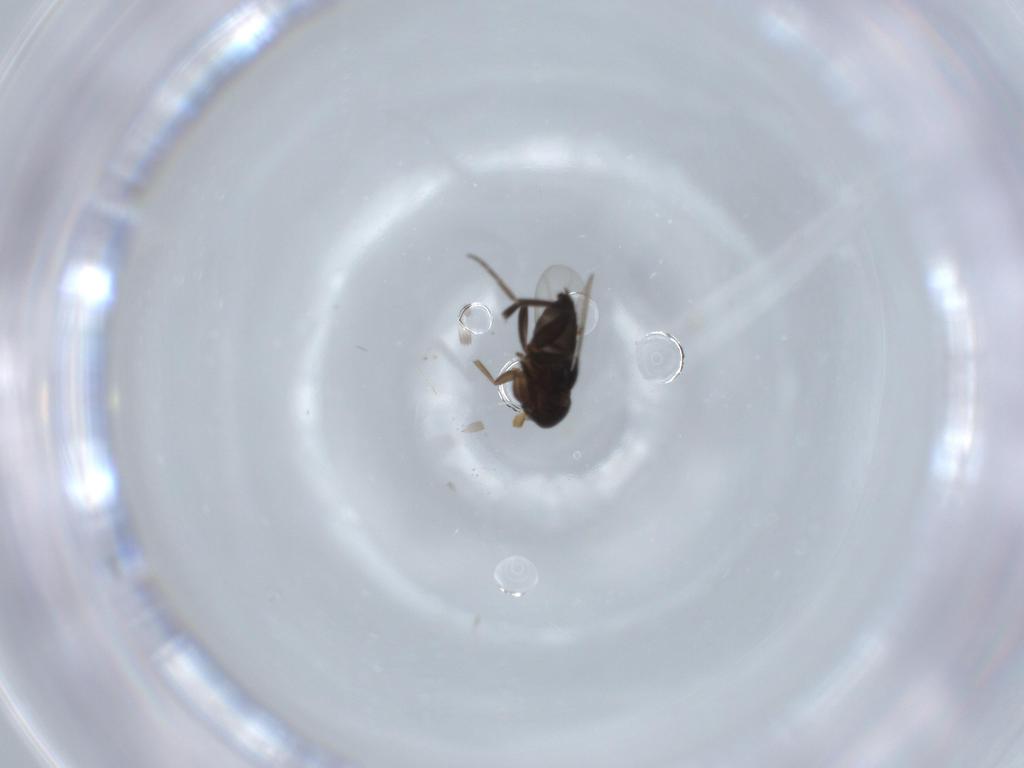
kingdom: Animalia
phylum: Arthropoda
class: Insecta
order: Diptera
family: Phoridae
